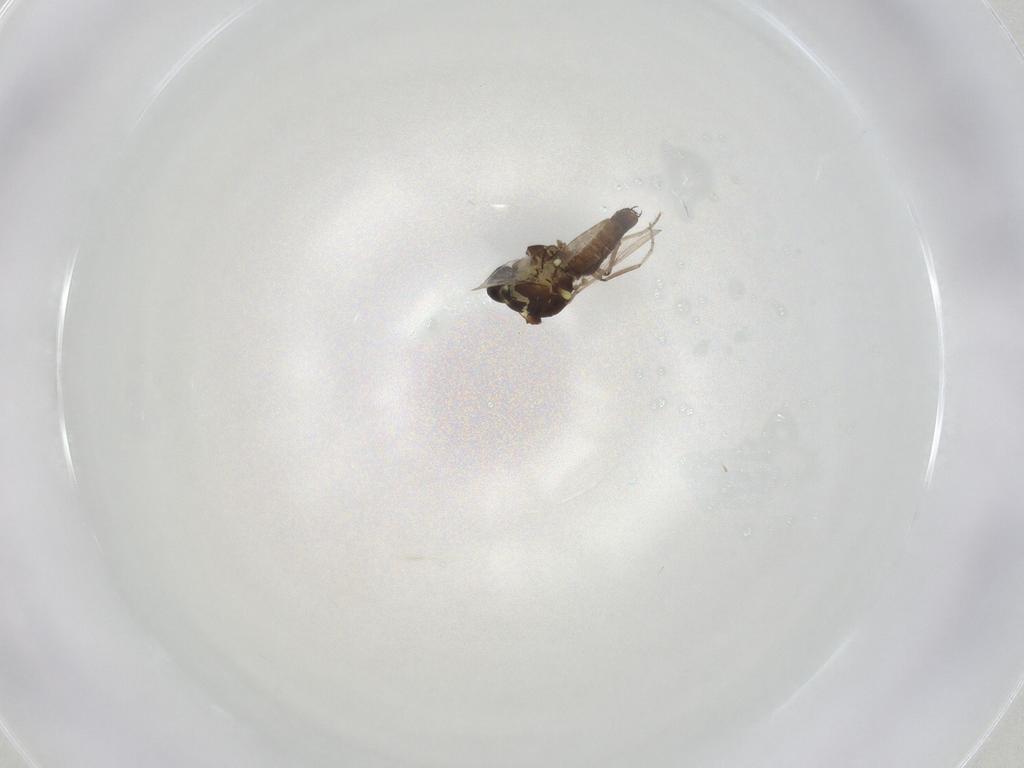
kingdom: Animalia
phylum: Arthropoda
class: Insecta
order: Diptera
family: Ceratopogonidae
